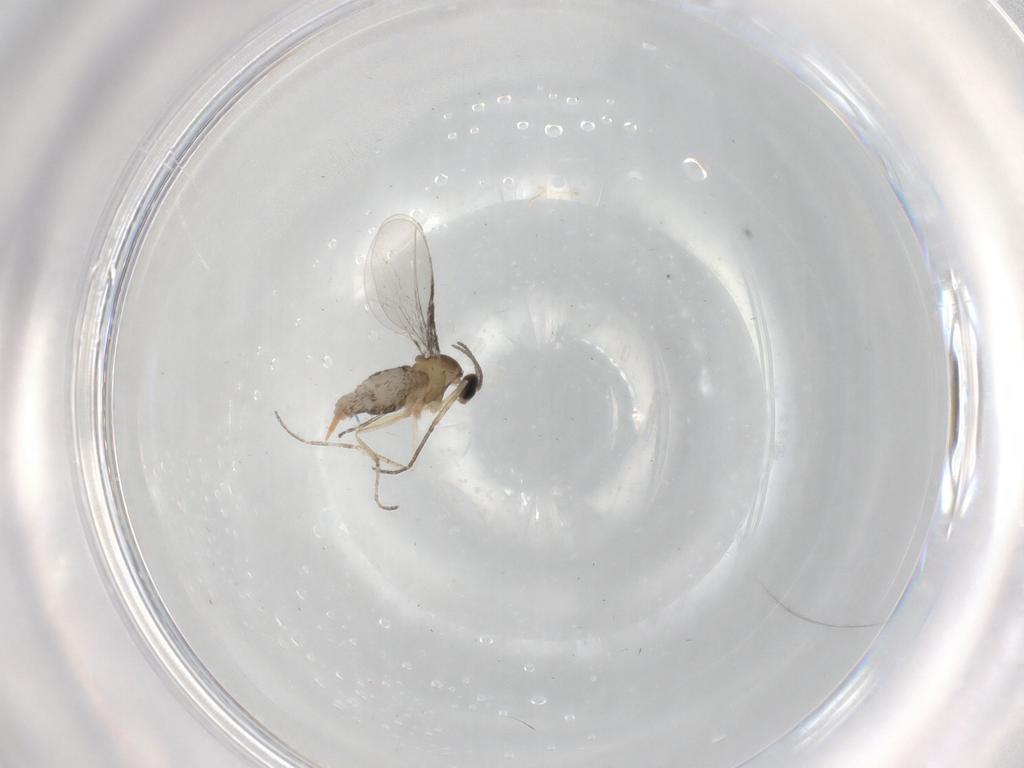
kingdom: Animalia
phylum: Arthropoda
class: Insecta
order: Diptera
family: Cecidomyiidae
